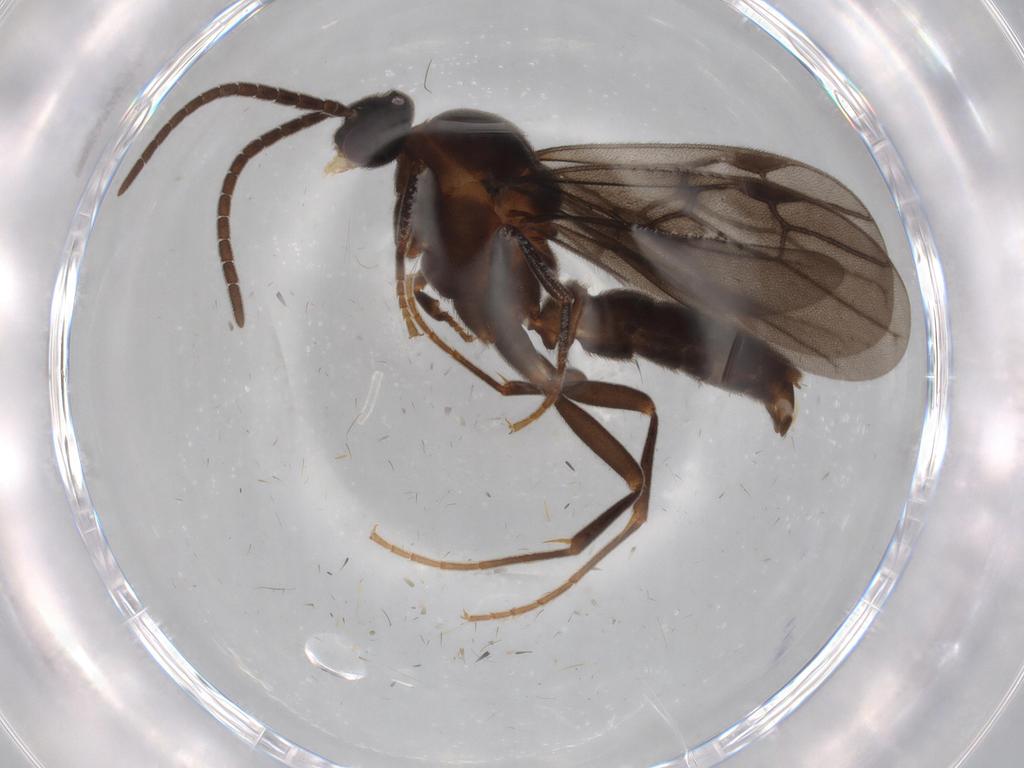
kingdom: Animalia
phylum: Arthropoda
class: Insecta
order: Hymenoptera
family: Formicidae
